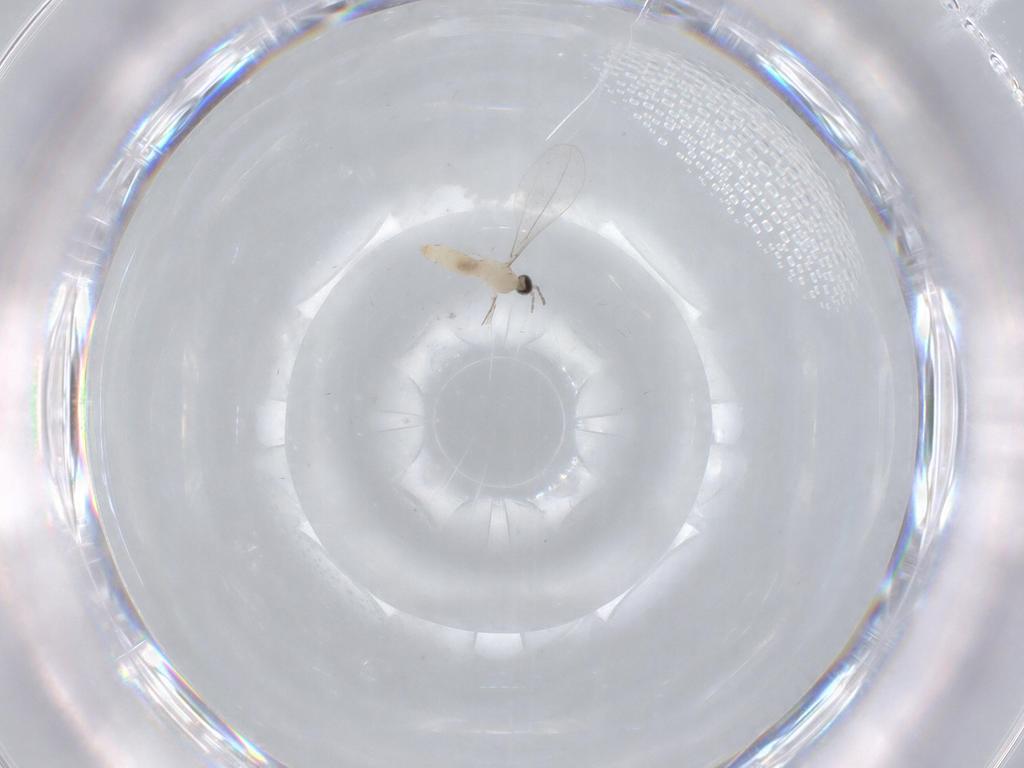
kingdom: Animalia
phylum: Arthropoda
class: Insecta
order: Diptera
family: Cecidomyiidae
